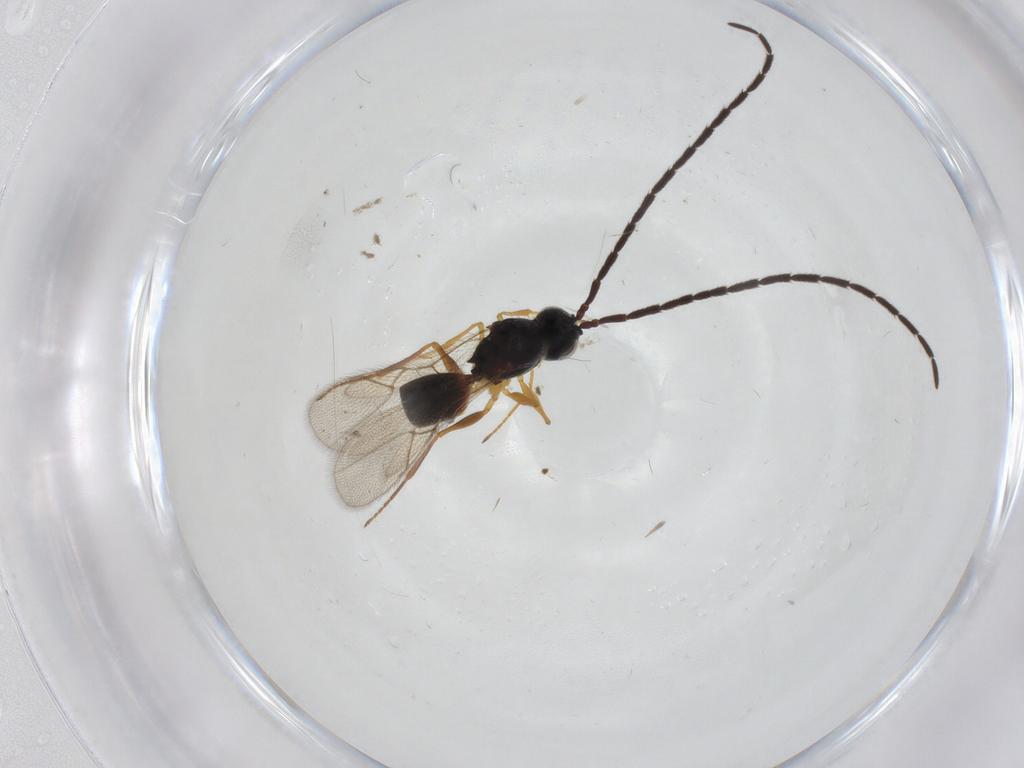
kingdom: Animalia
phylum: Arthropoda
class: Insecta
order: Hymenoptera
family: Figitidae
